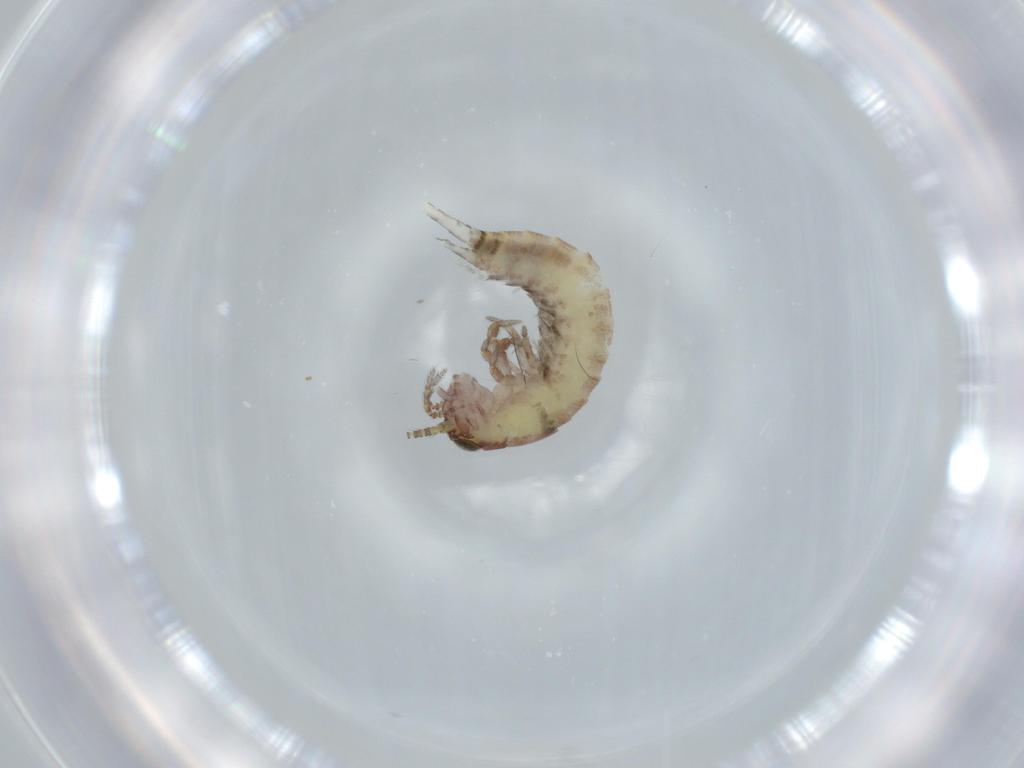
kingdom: Animalia
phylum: Arthropoda
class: Insecta
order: Archaeognatha
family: Machilidae
